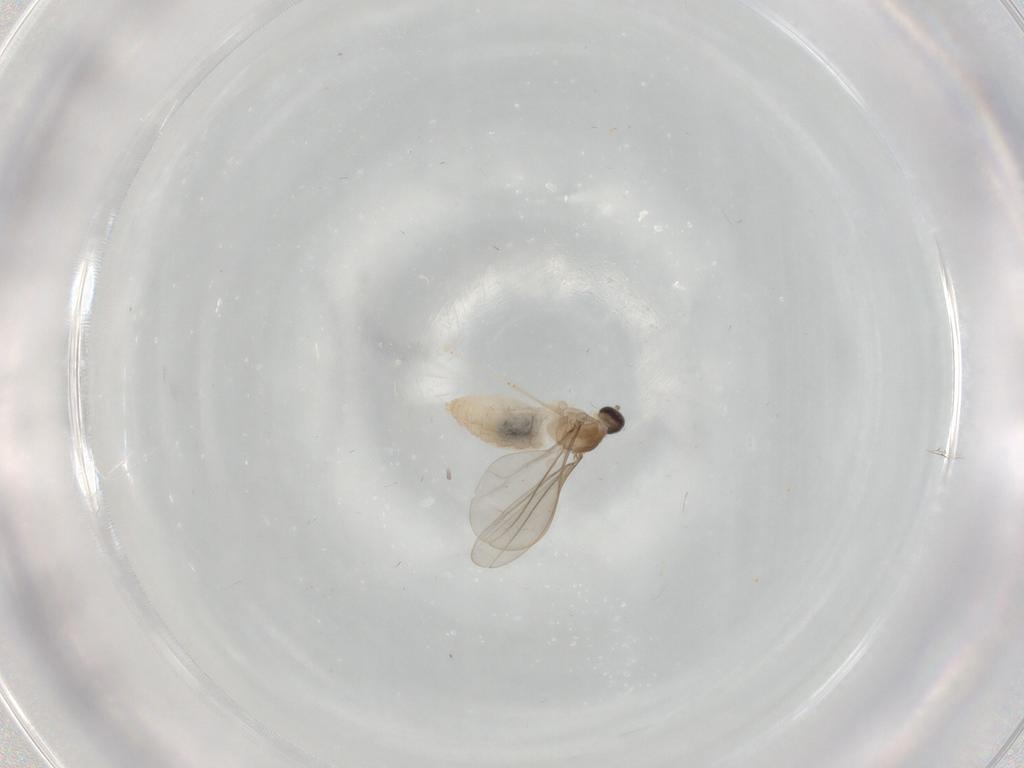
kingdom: Animalia
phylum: Arthropoda
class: Insecta
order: Diptera
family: Cecidomyiidae
